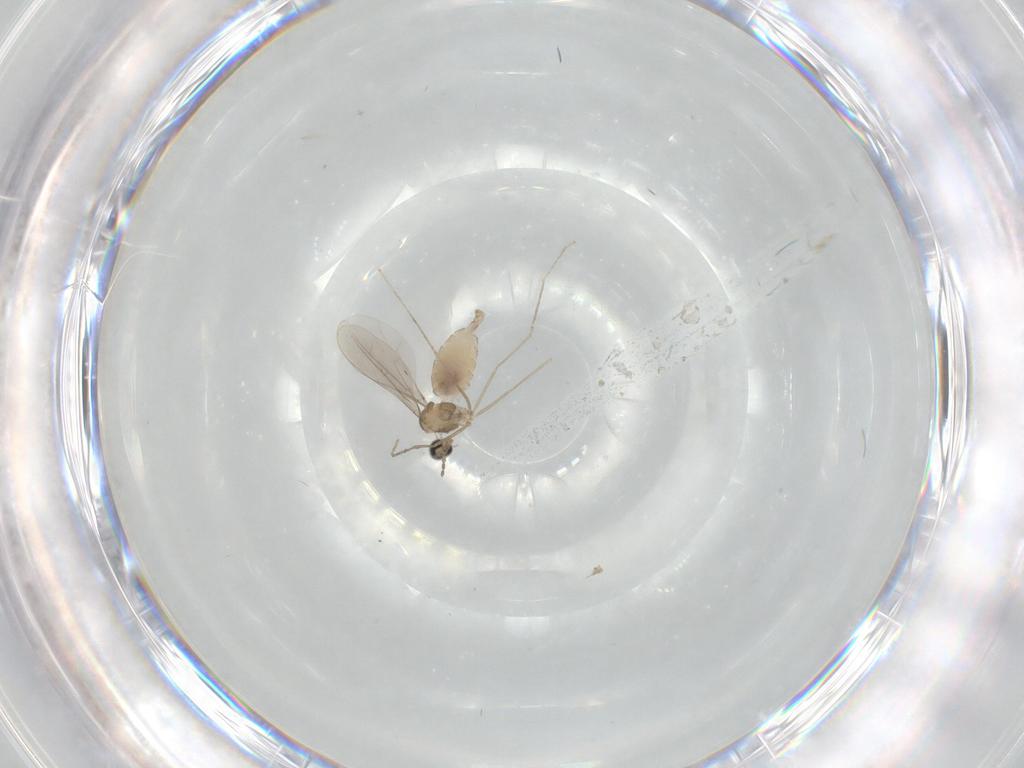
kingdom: Animalia
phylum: Arthropoda
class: Insecta
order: Diptera
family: Cecidomyiidae
